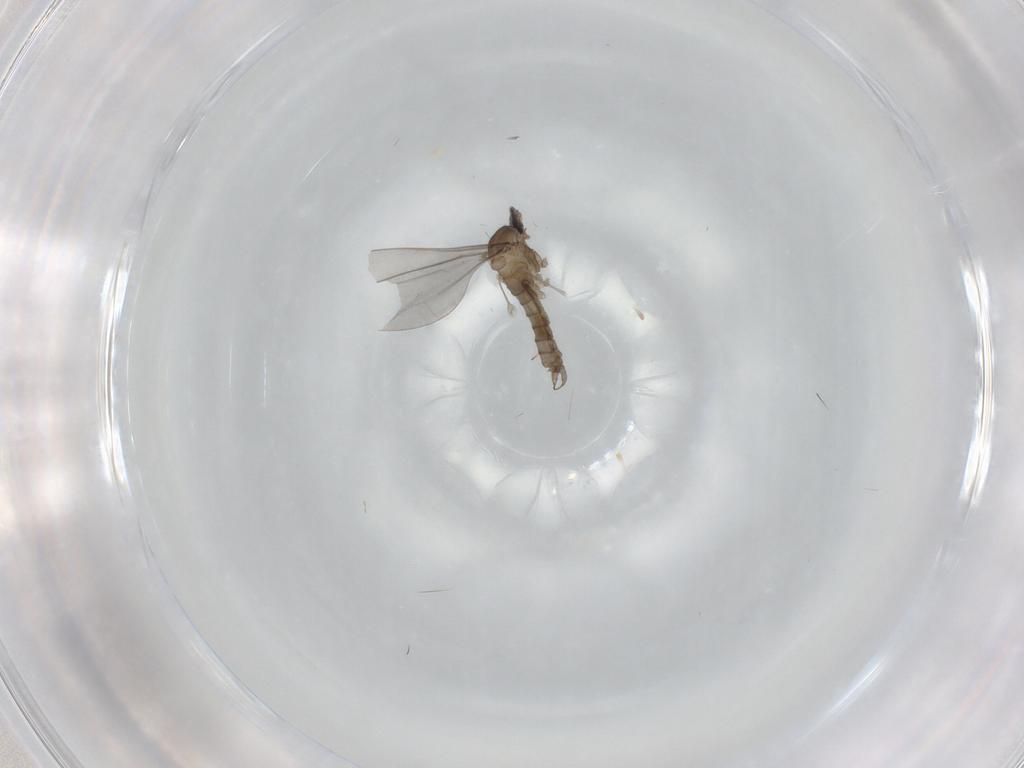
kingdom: Animalia
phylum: Arthropoda
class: Insecta
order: Diptera
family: Cecidomyiidae
